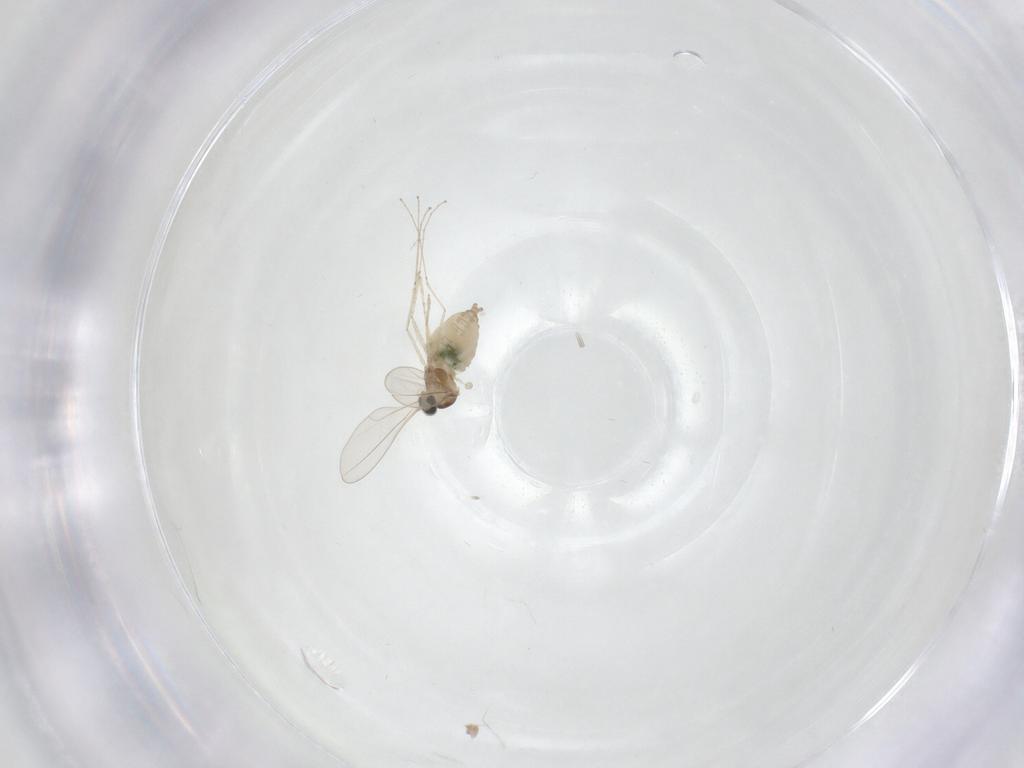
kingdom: Animalia
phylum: Arthropoda
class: Insecta
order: Diptera
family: Cecidomyiidae
